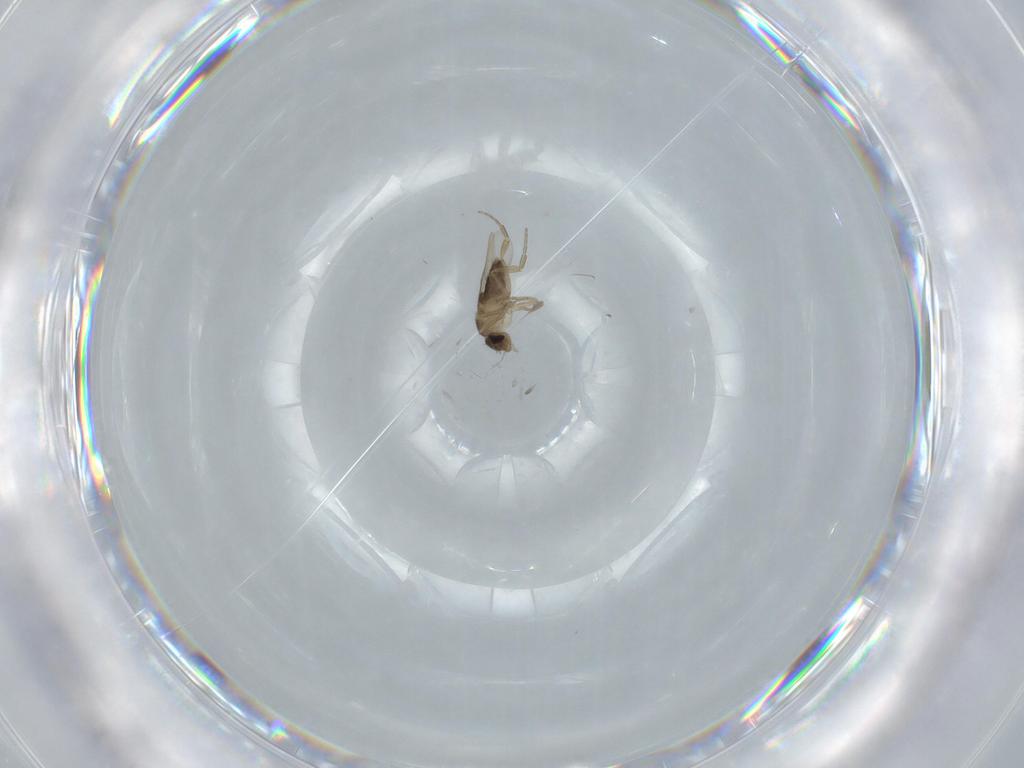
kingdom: Animalia
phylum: Arthropoda
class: Insecta
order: Diptera
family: Phoridae
